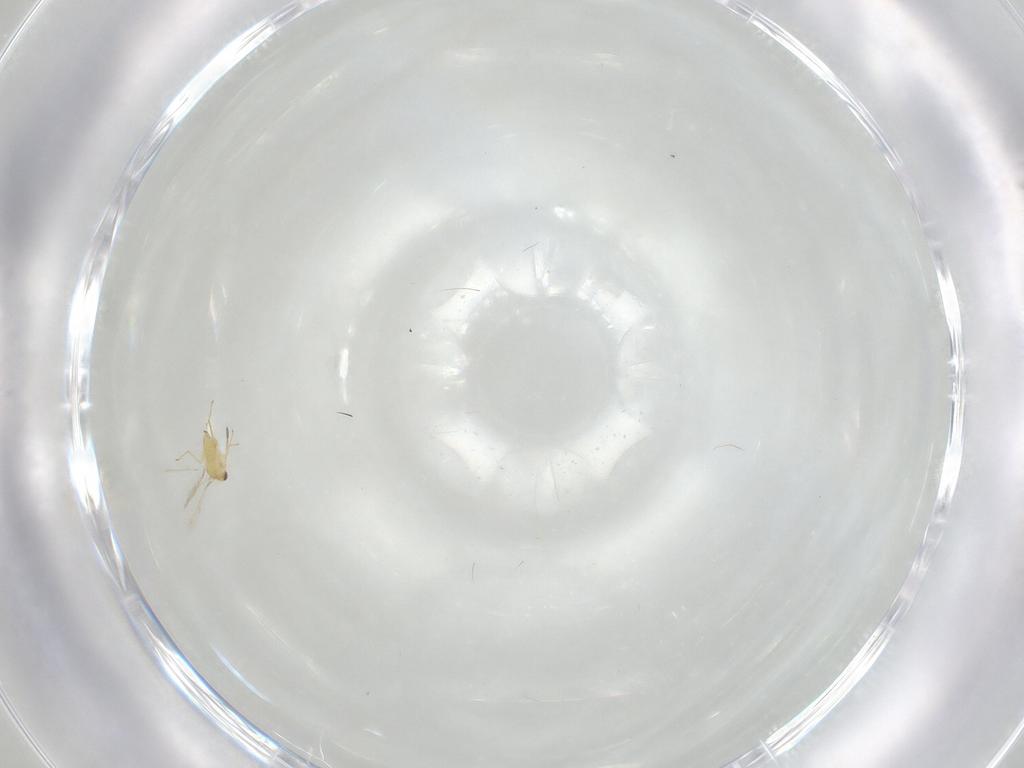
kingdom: Animalia
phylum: Arthropoda
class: Insecta
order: Hymenoptera
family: Mymaridae
